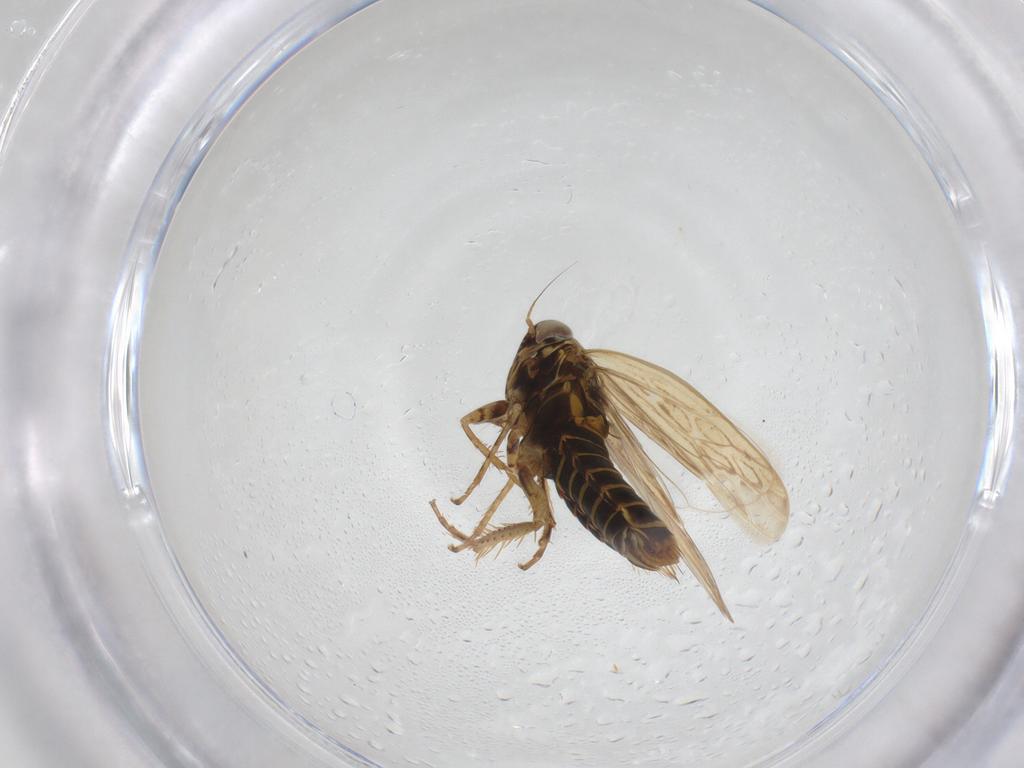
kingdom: Animalia
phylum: Arthropoda
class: Insecta
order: Hemiptera
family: Cicadellidae
